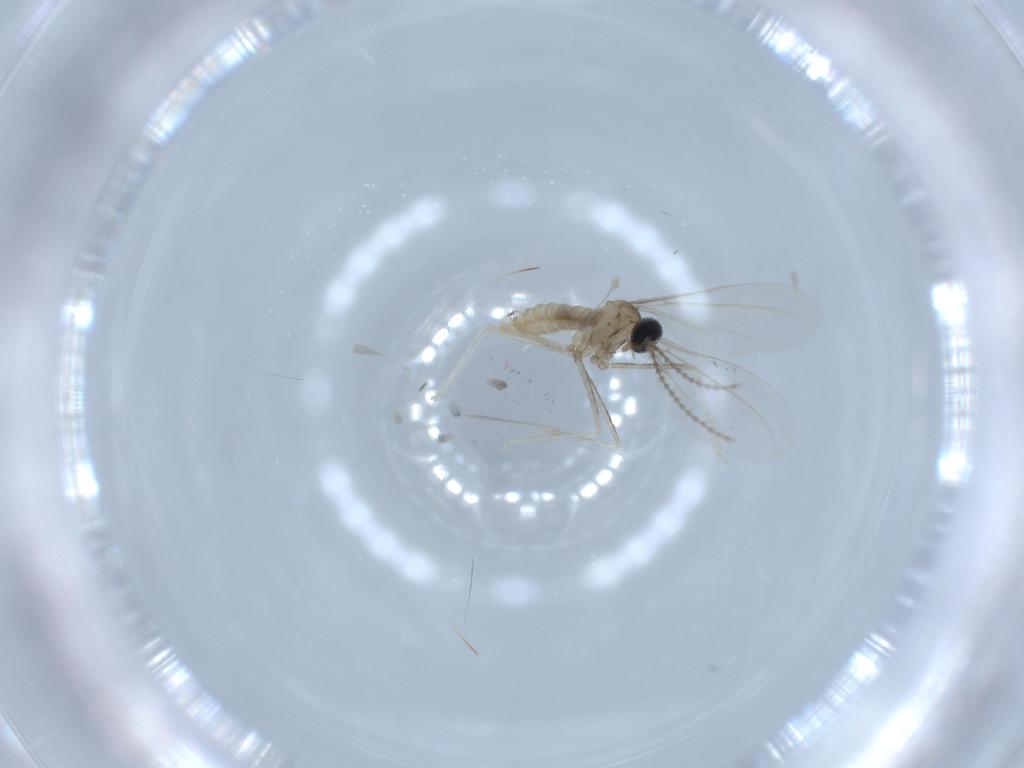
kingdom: Animalia
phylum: Arthropoda
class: Insecta
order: Diptera
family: Cecidomyiidae
